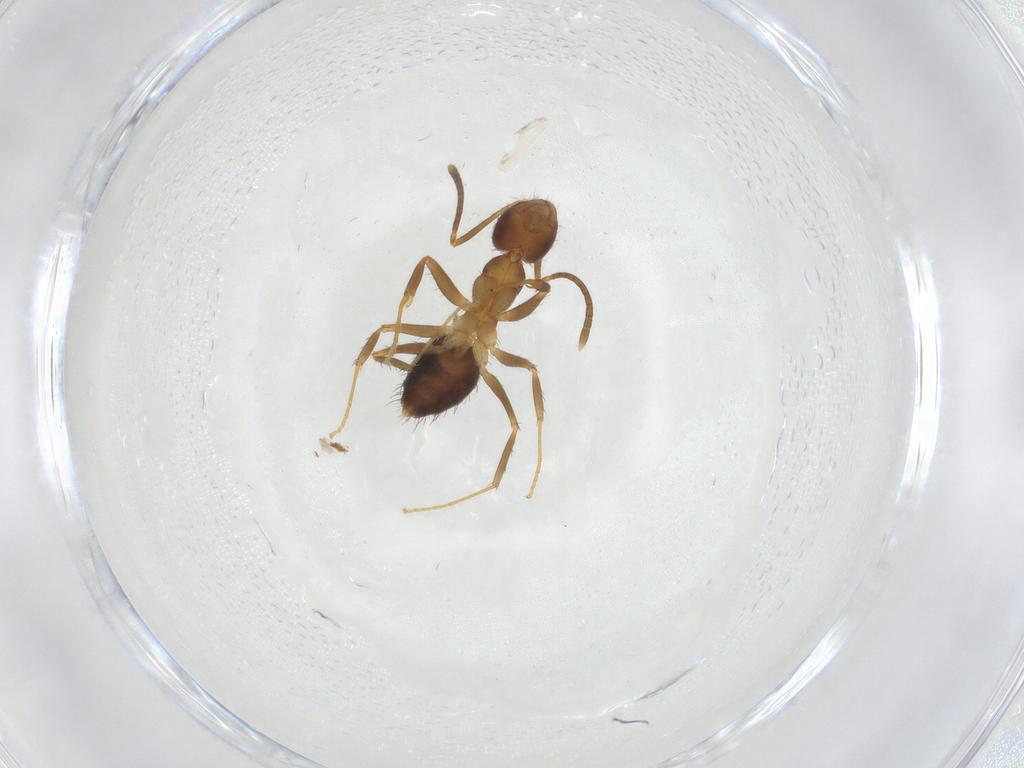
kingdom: Animalia
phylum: Arthropoda
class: Insecta
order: Hymenoptera
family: Formicidae
